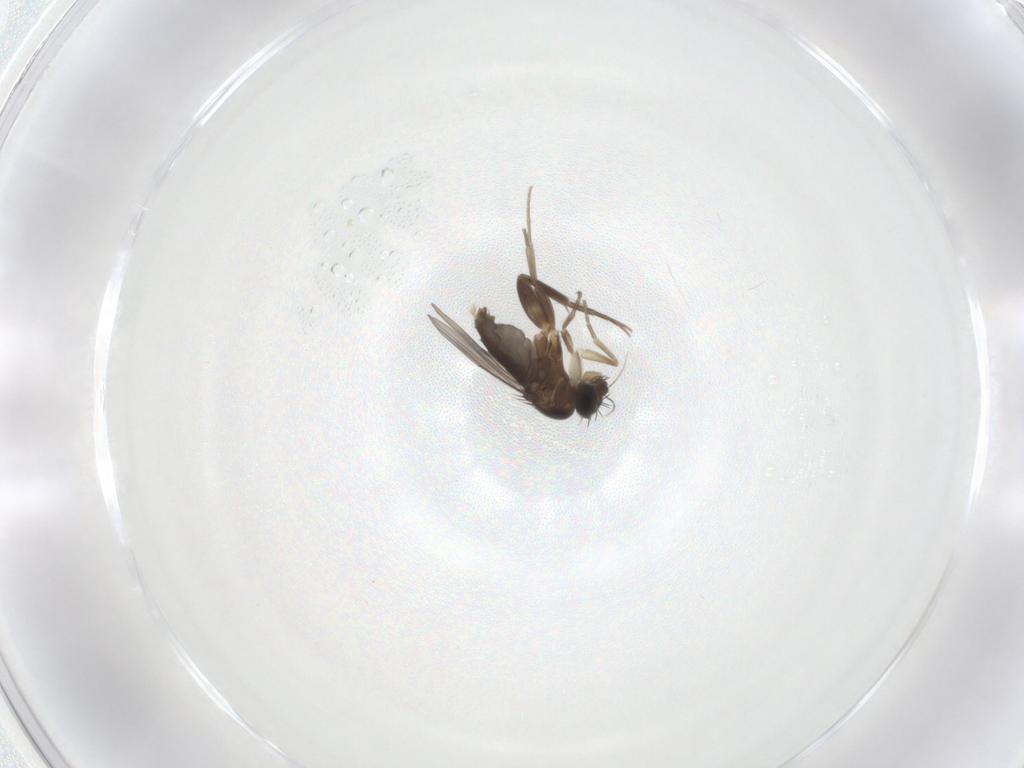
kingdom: Animalia
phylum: Arthropoda
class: Insecta
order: Diptera
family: Phoridae
